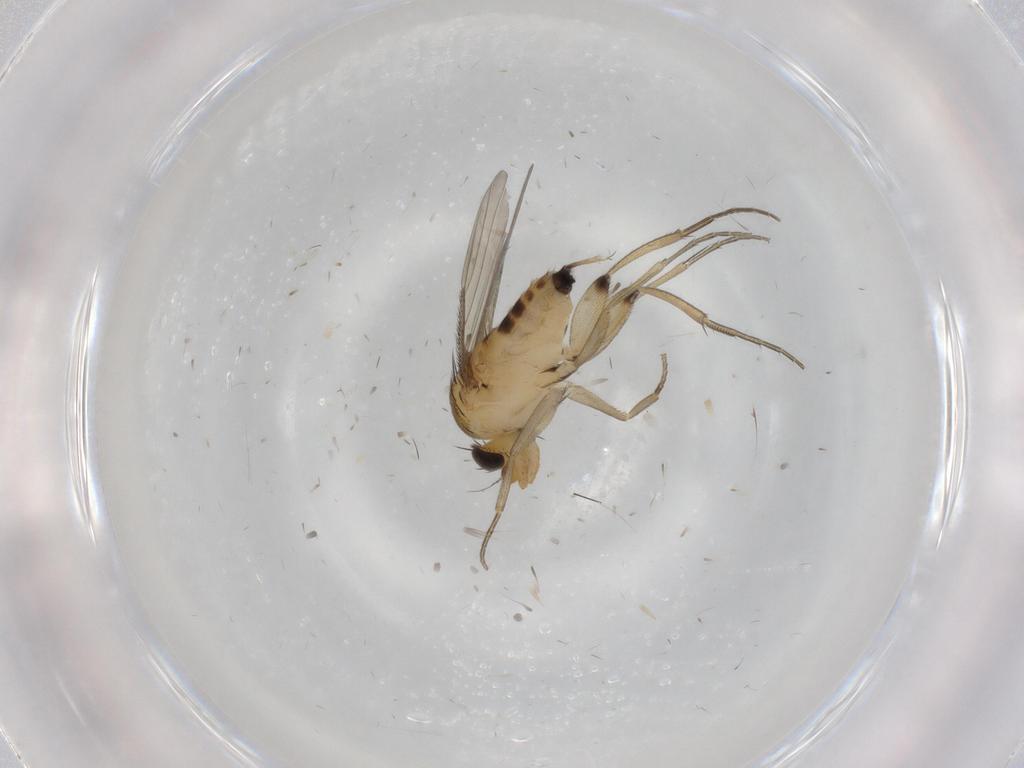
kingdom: Animalia
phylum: Arthropoda
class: Insecta
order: Diptera
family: Phoridae
